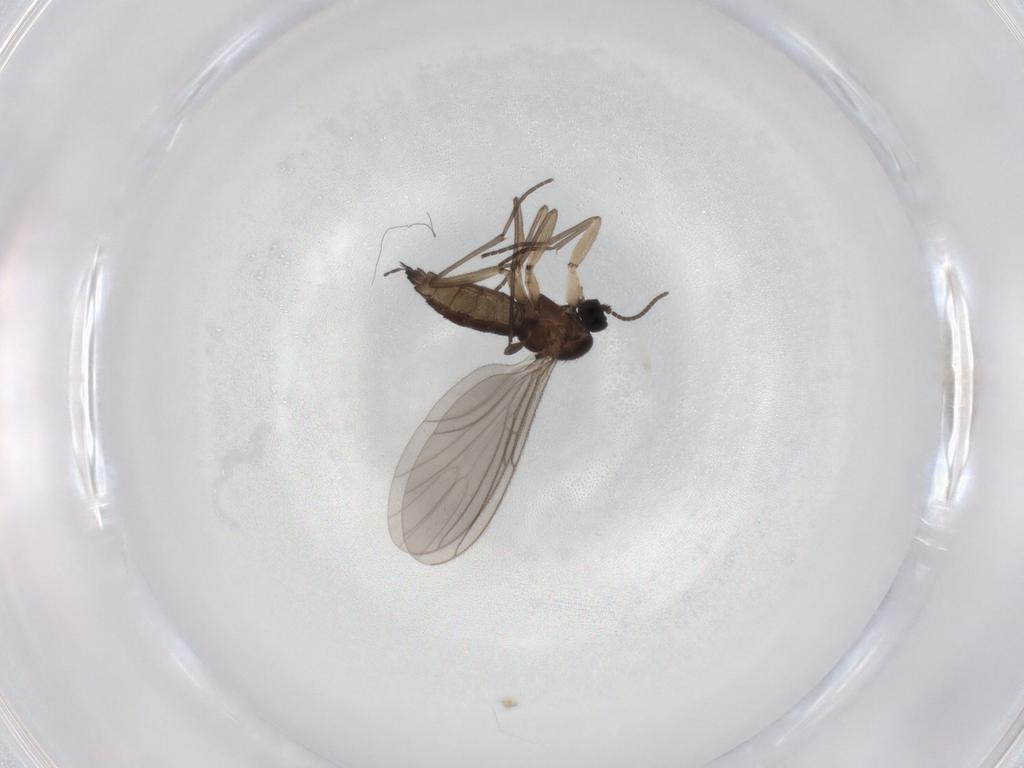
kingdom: Animalia
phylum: Arthropoda
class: Insecta
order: Diptera
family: Sciaridae
